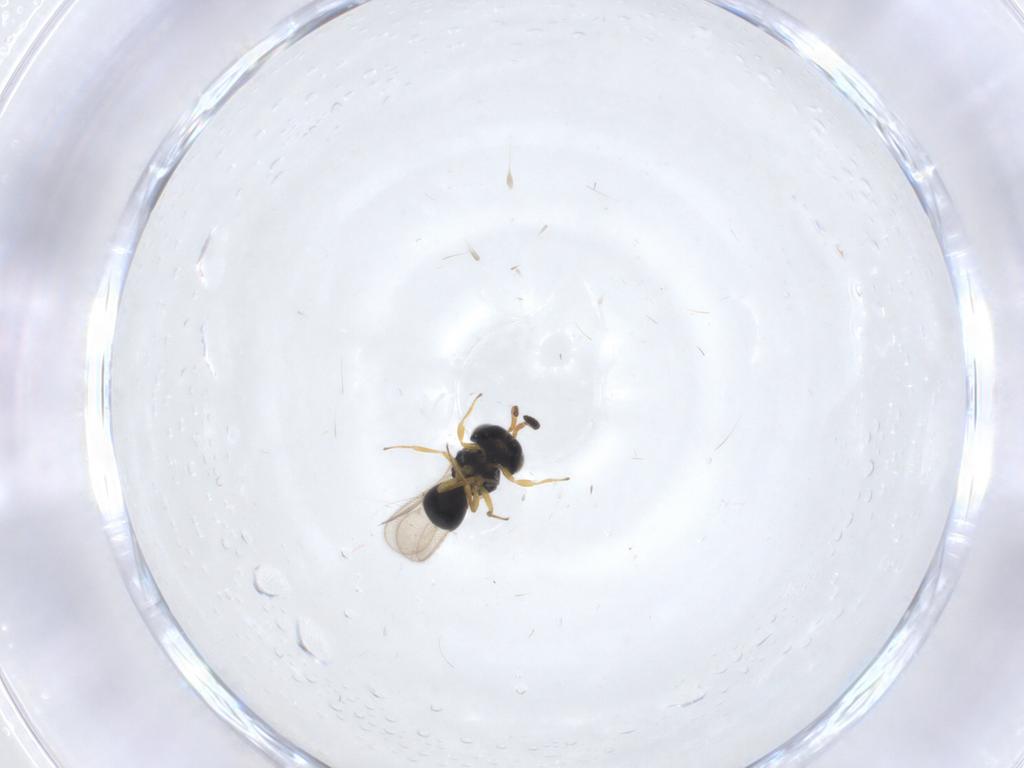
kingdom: Animalia
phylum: Arthropoda
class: Insecta
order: Hymenoptera
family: Scelionidae
